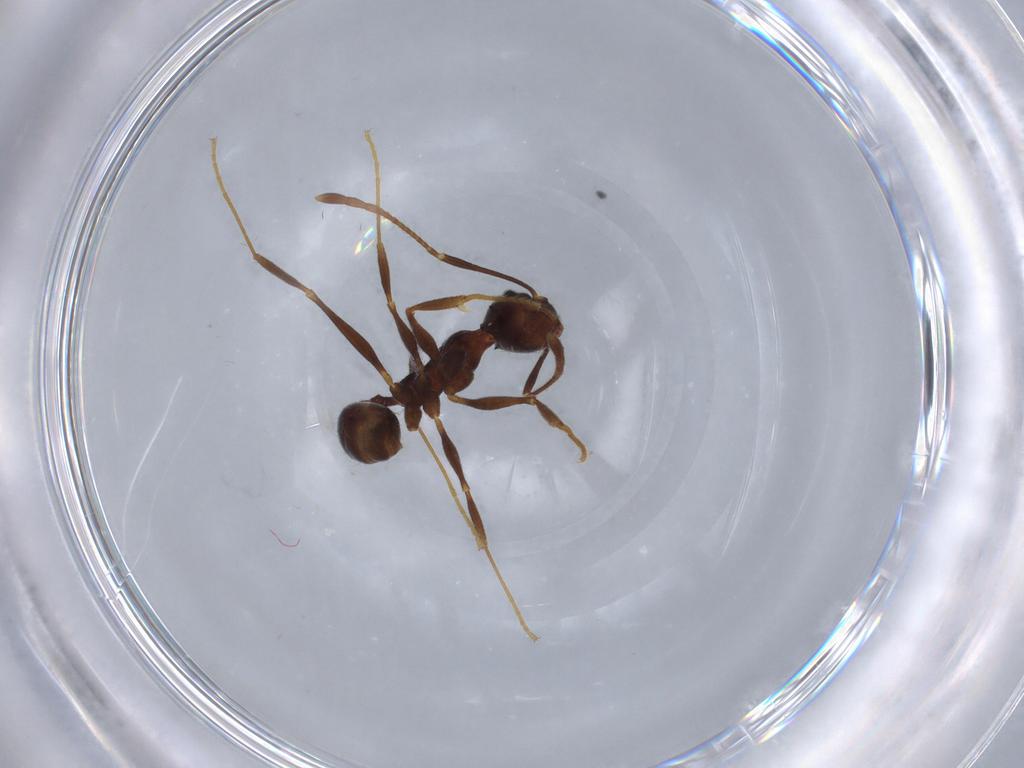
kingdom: Animalia
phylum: Arthropoda
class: Insecta
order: Hymenoptera
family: Formicidae
